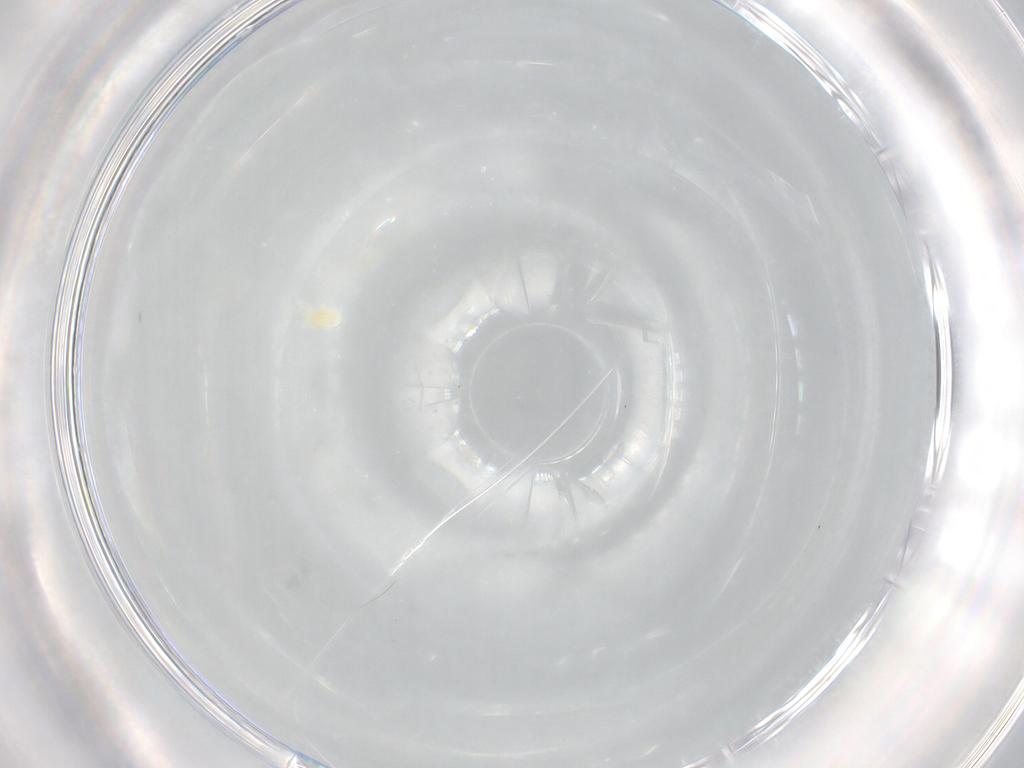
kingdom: Animalia
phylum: Arthropoda
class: Arachnida
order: Trombidiformes
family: Eupodidae
